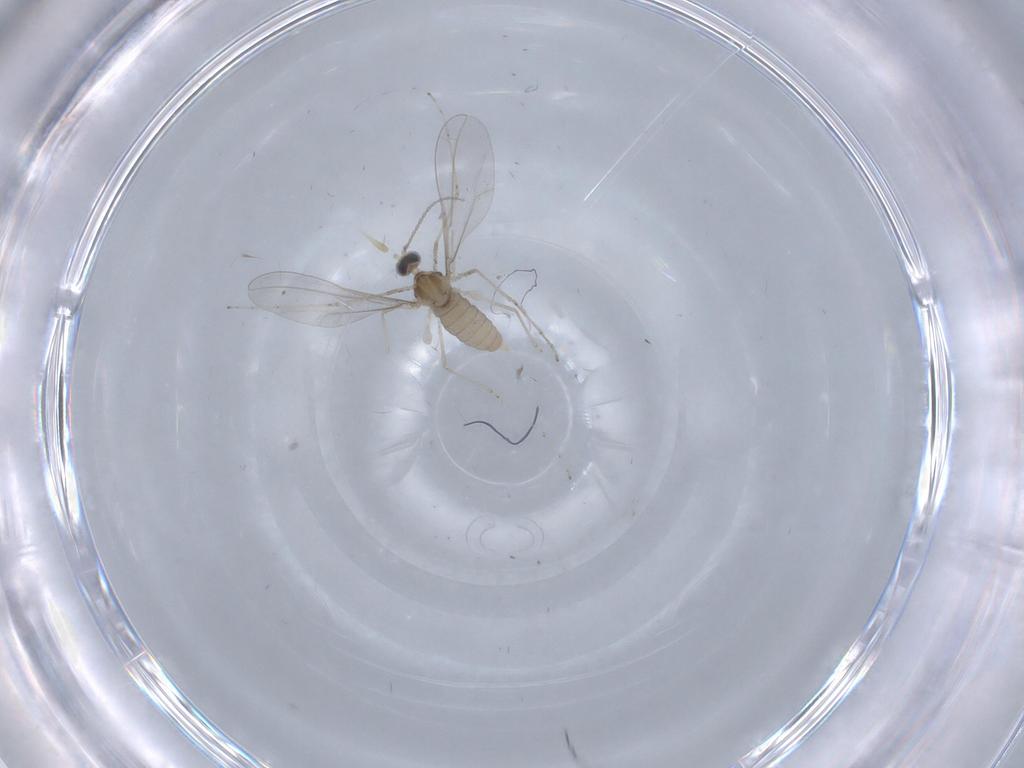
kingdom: Animalia
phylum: Arthropoda
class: Insecta
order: Diptera
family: Cecidomyiidae
